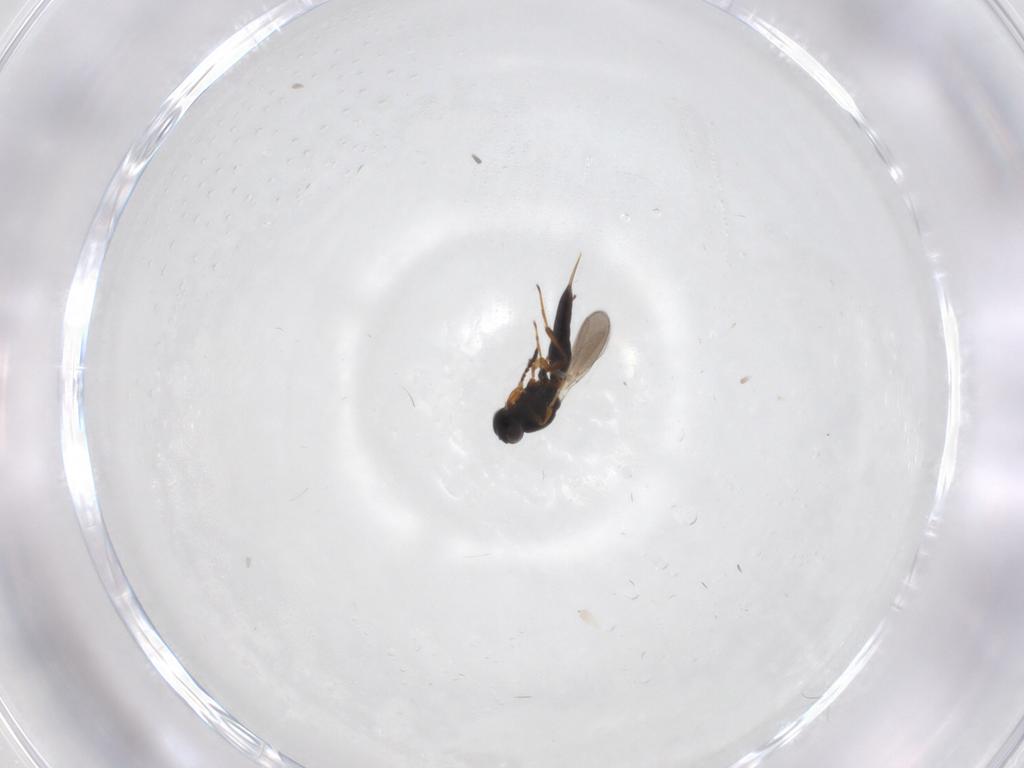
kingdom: Animalia
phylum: Arthropoda
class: Insecta
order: Hymenoptera
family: Platygastridae
